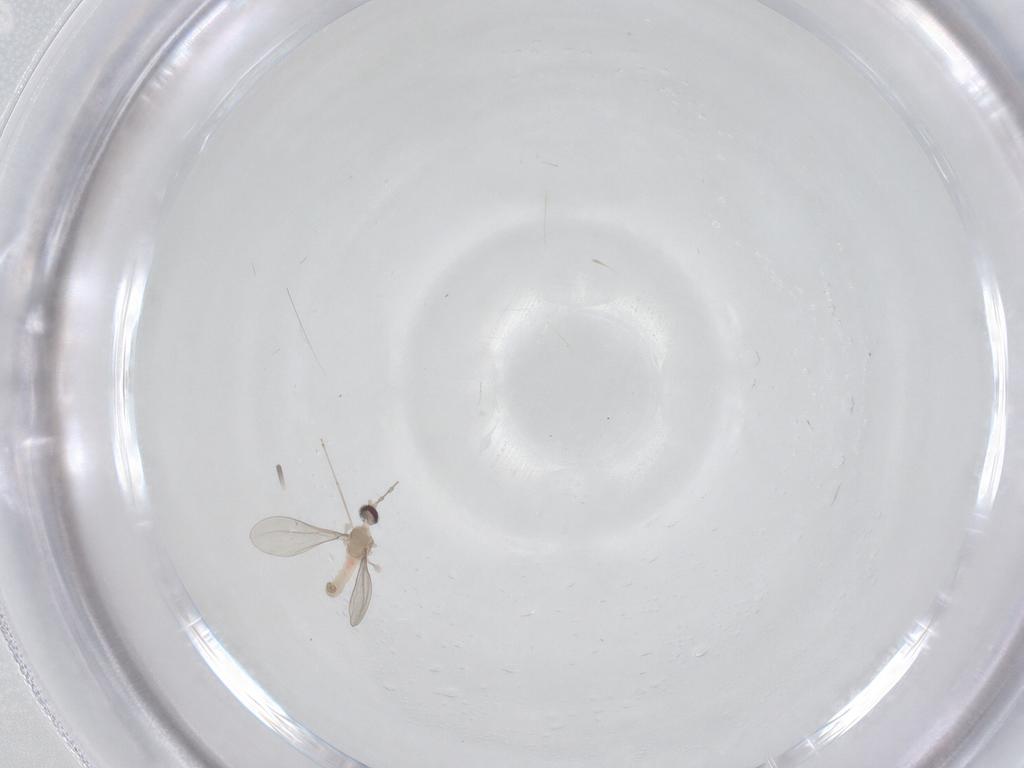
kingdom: Animalia
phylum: Arthropoda
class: Insecta
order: Diptera
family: Cecidomyiidae
